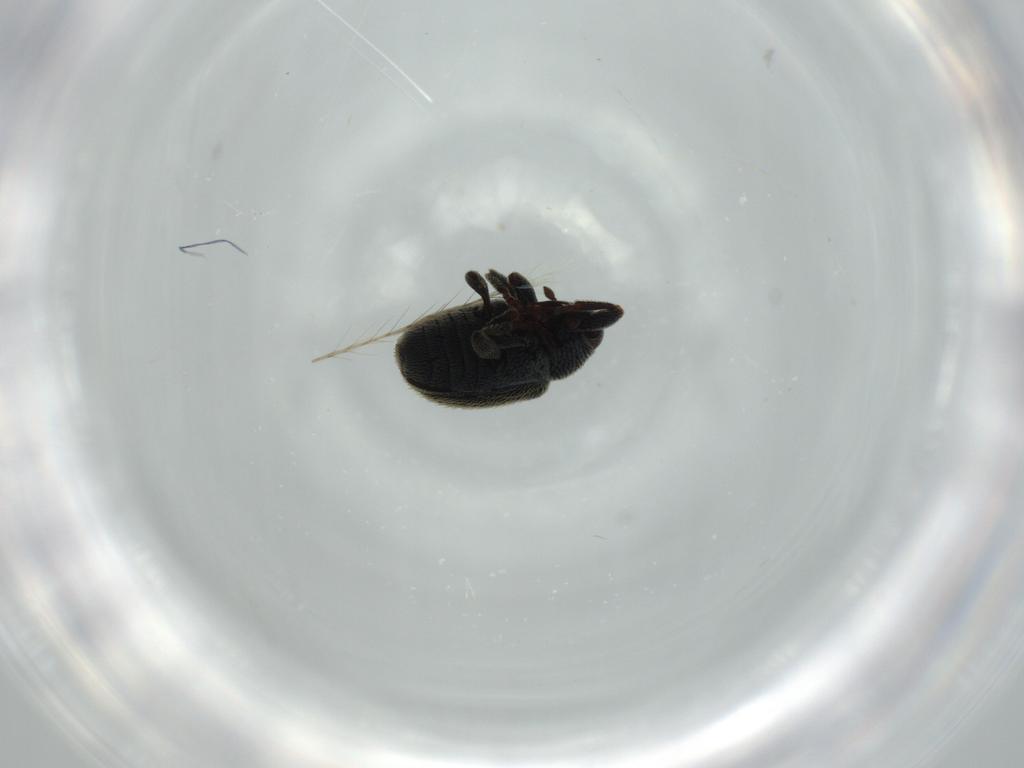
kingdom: Animalia
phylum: Arthropoda
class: Insecta
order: Coleoptera
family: Curculionidae
